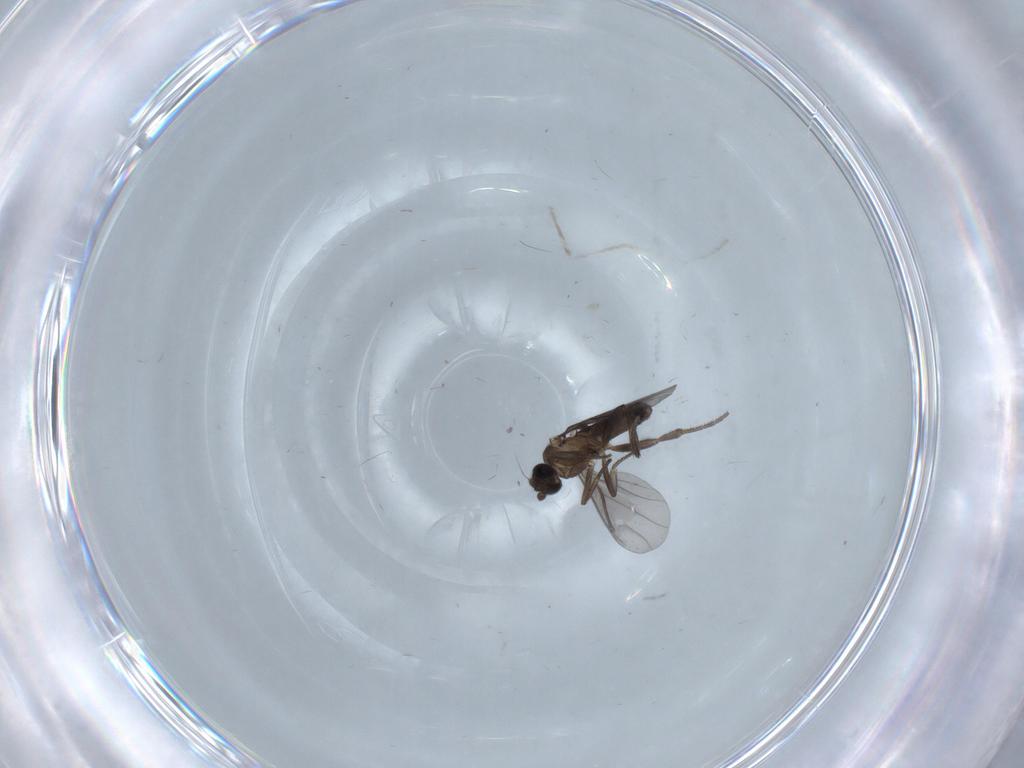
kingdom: Animalia
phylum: Arthropoda
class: Insecta
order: Diptera
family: Cecidomyiidae
